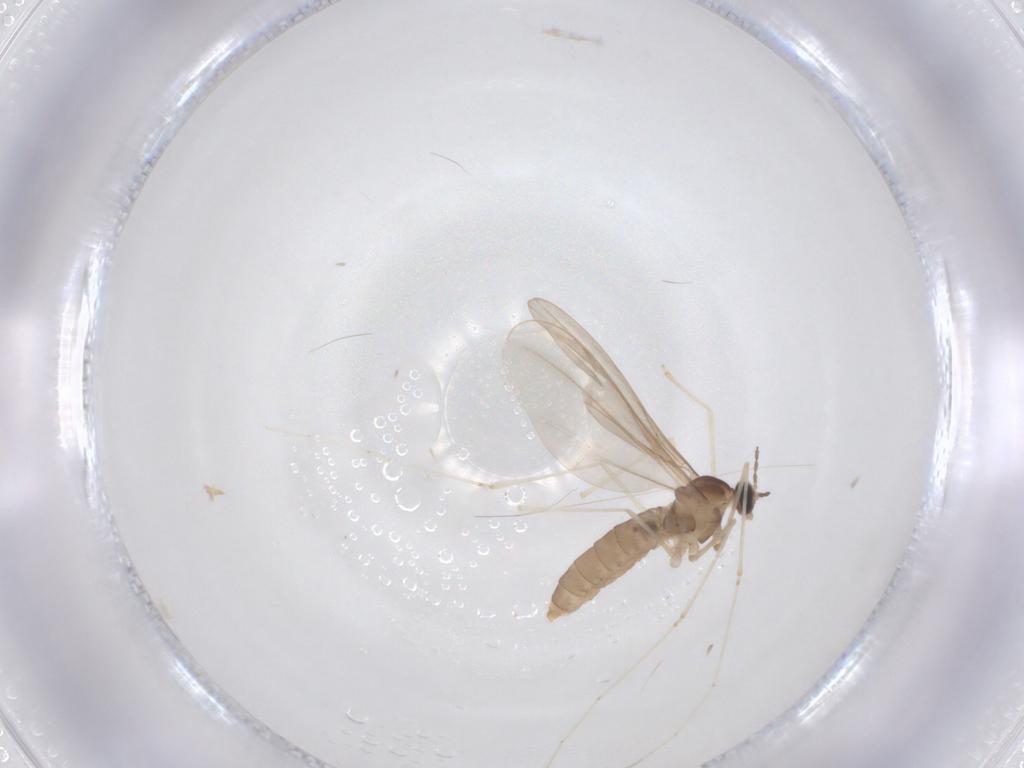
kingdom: Animalia
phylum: Arthropoda
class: Insecta
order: Diptera
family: Cecidomyiidae
